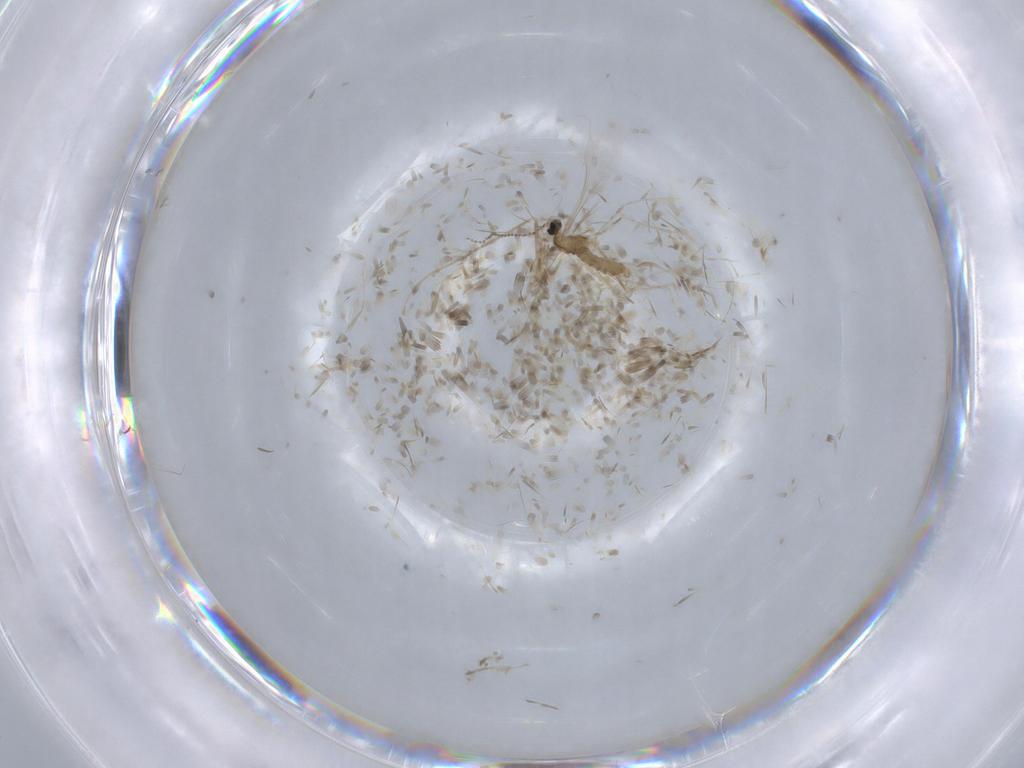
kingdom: Animalia
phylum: Arthropoda
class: Insecta
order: Diptera
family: Cecidomyiidae
